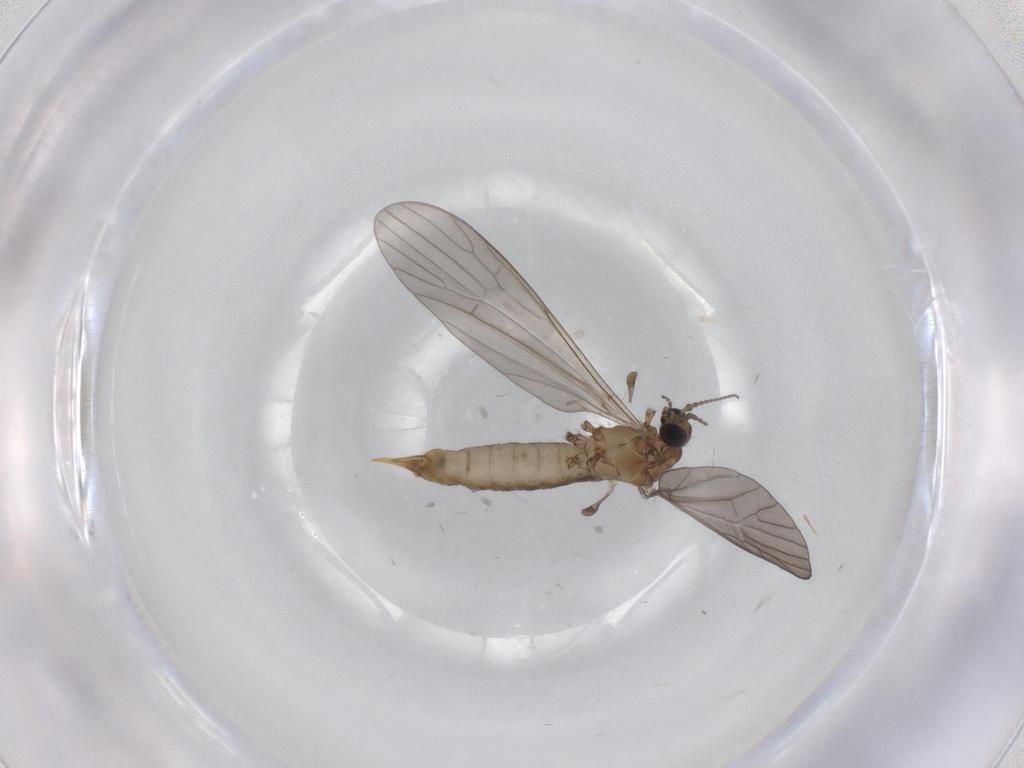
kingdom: Animalia
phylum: Arthropoda
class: Insecta
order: Diptera
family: Limoniidae
